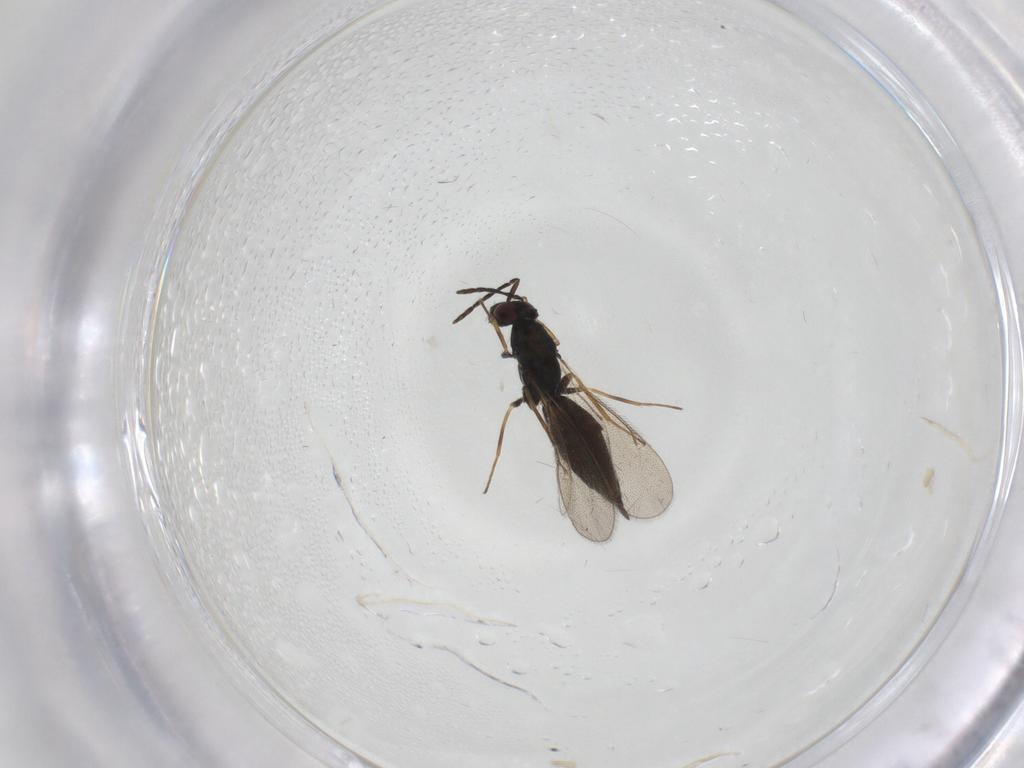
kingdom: Animalia
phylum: Arthropoda
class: Insecta
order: Hymenoptera
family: Eulophidae
